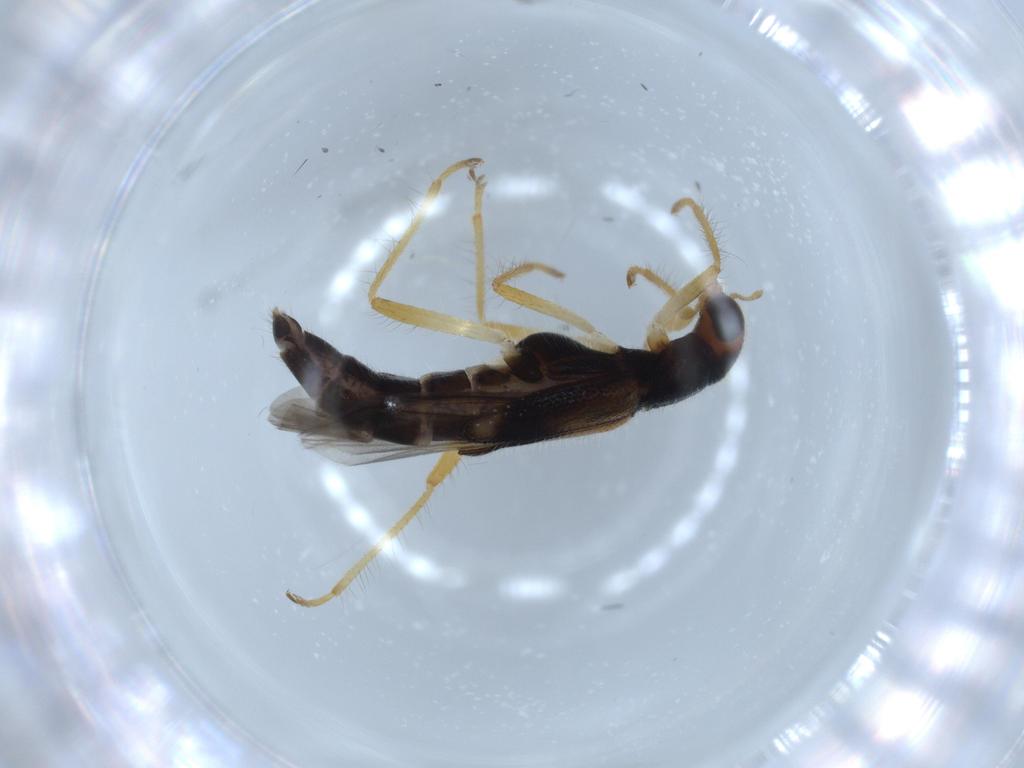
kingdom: Animalia
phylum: Arthropoda
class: Insecta
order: Coleoptera
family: Cleridae
